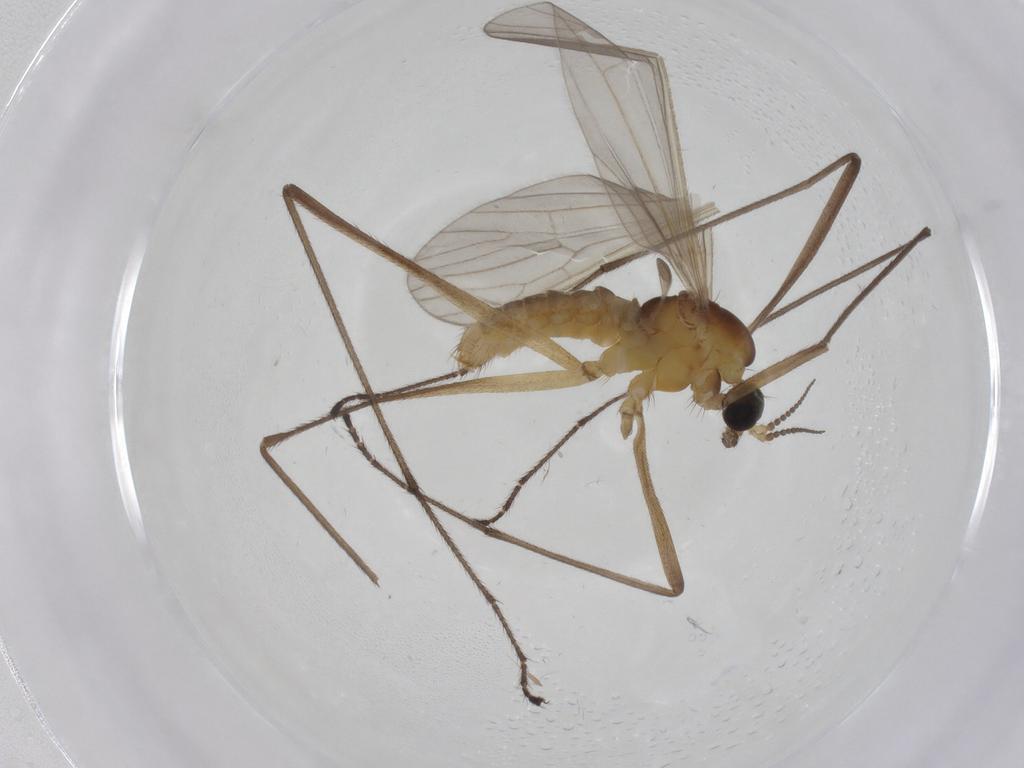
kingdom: Animalia
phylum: Arthropoda
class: Insecta
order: Diptera
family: Limoniidae
